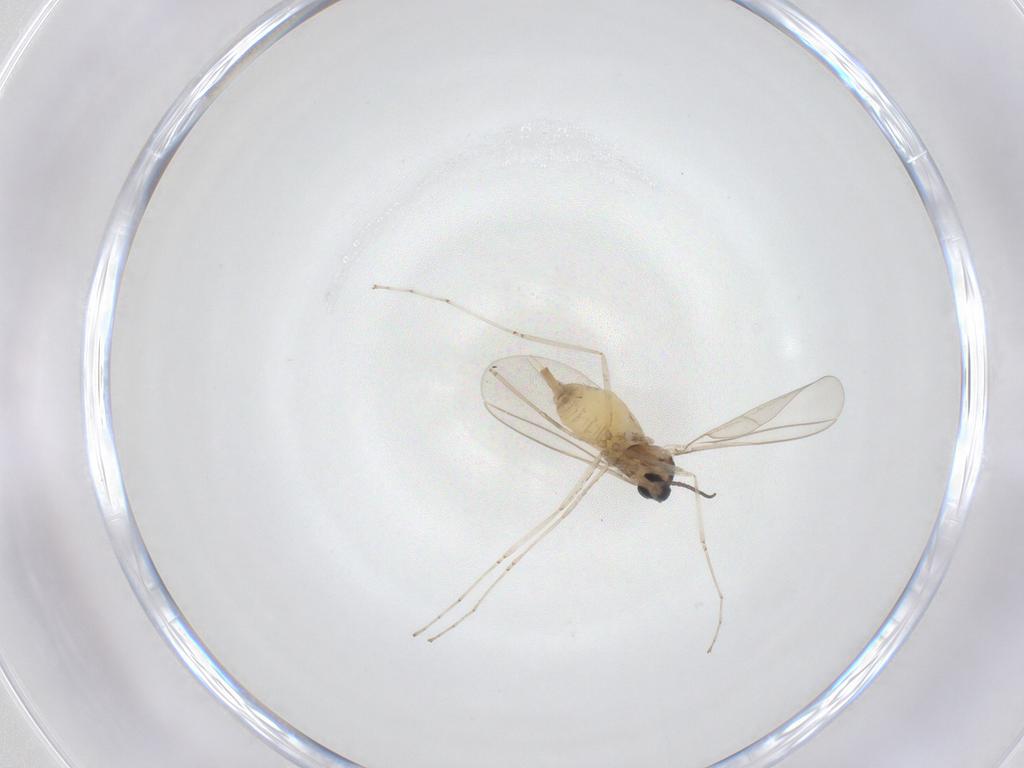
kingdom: Animalia
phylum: Arthropoda
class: Insecta
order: Diptera
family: Cecidomyiidae
